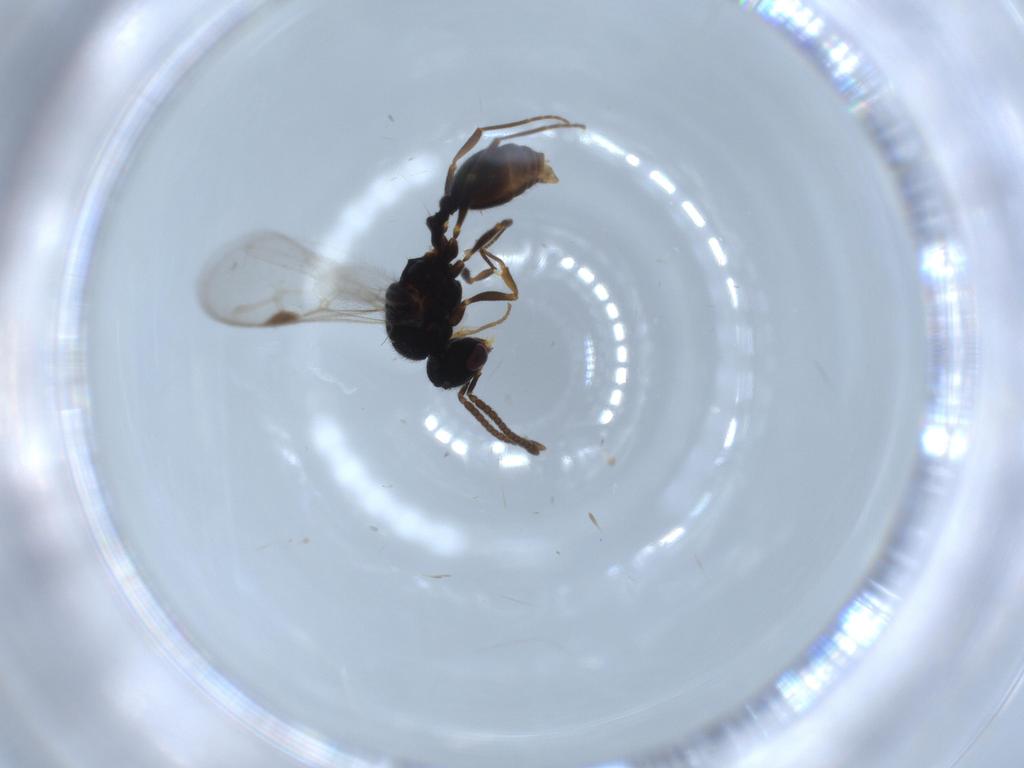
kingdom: Animalia
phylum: Arthropoda
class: Insecta
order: Hymenoptera
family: Formicidae
